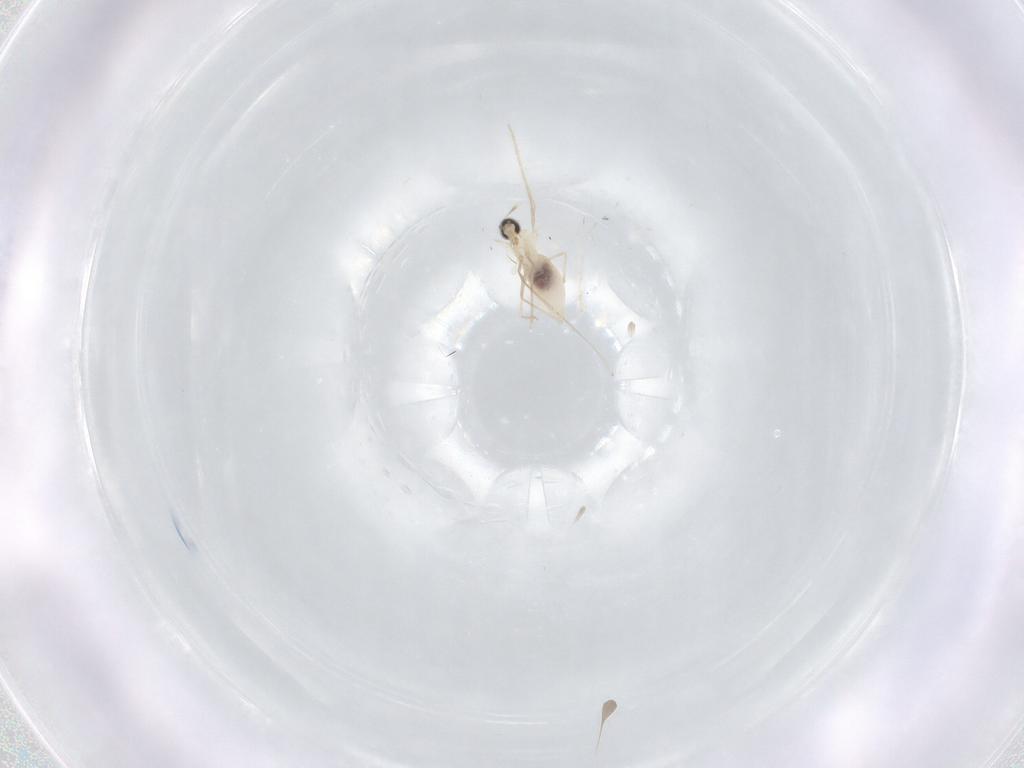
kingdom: Animalia
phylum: Arthropoda
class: Insecta
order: Diptera
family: Cecidomyiidae
